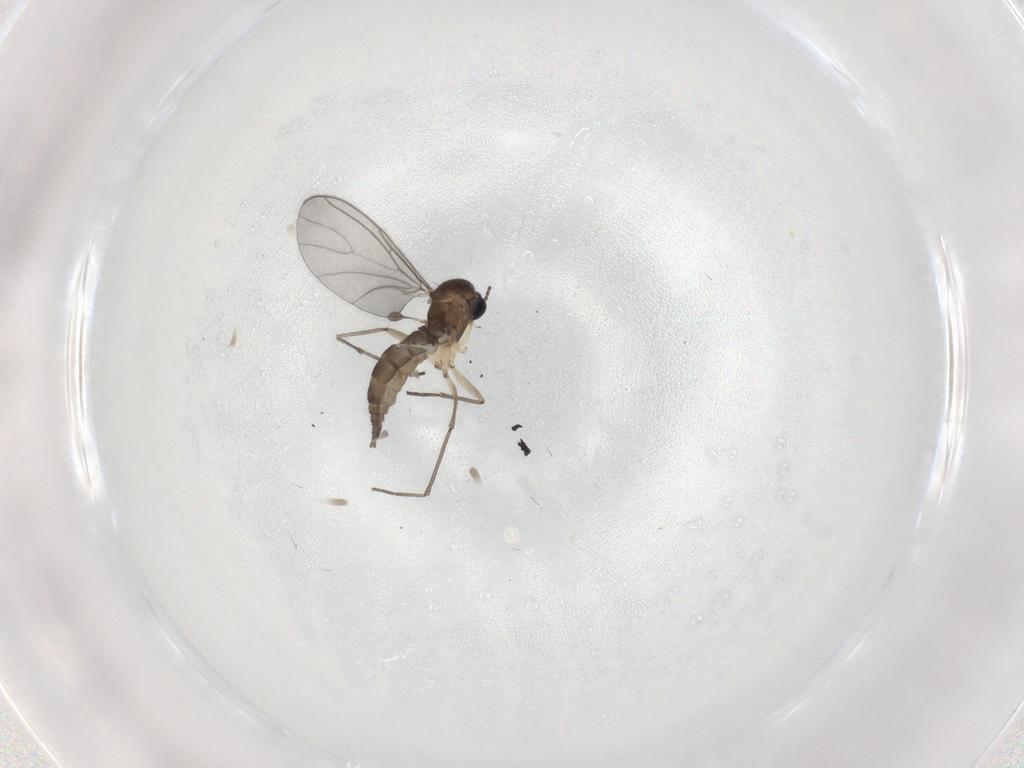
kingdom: Animalia
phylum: Arthropoda
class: Insecta
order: Diptera
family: Sciaridae
